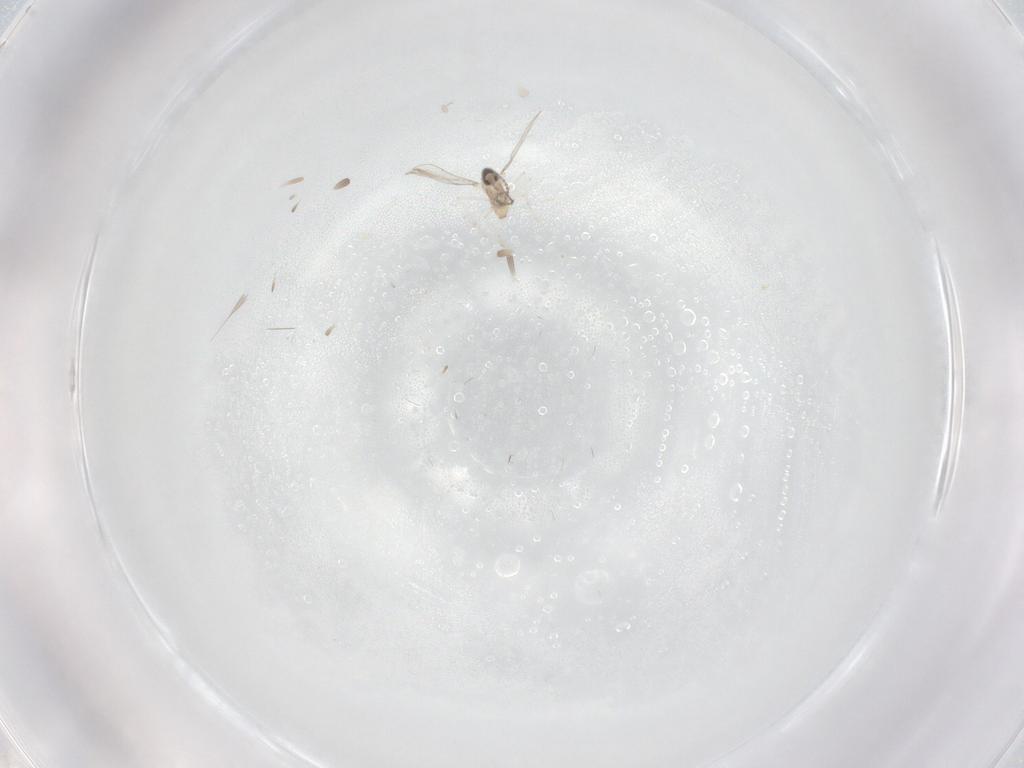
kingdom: Animalia
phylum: Arthropoda
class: Insecta
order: Diptera
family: Cecidomyiidae
